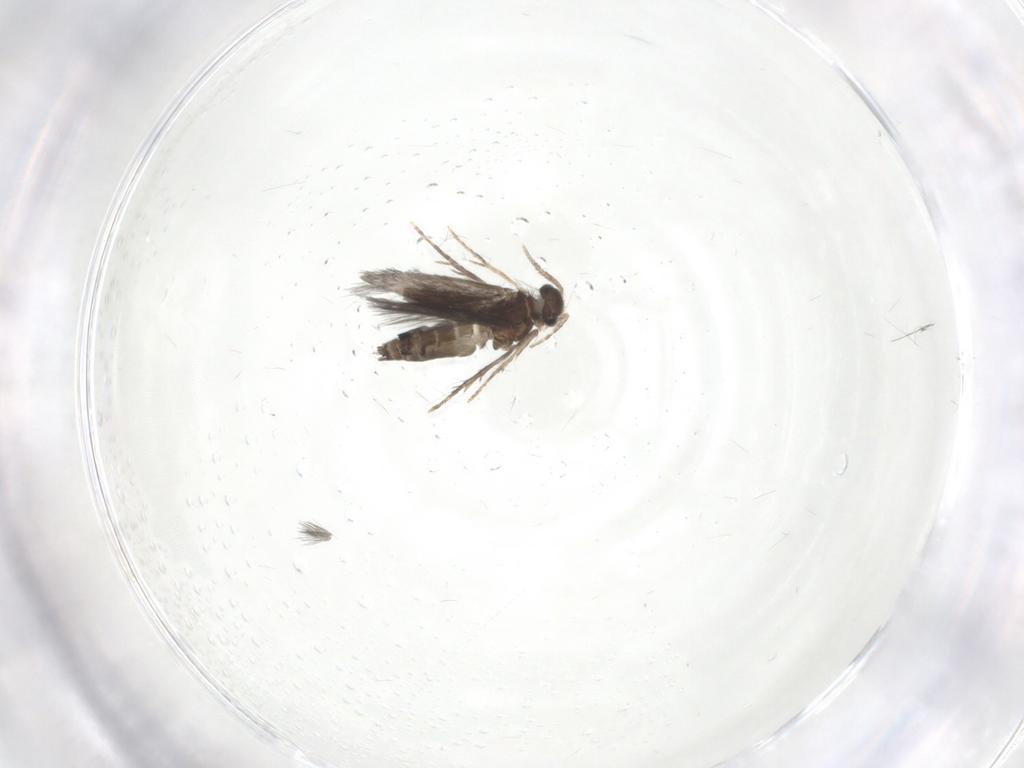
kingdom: Animalia
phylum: Arthropoda
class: Insecta
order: Trichoptera
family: Hydroptilidae
